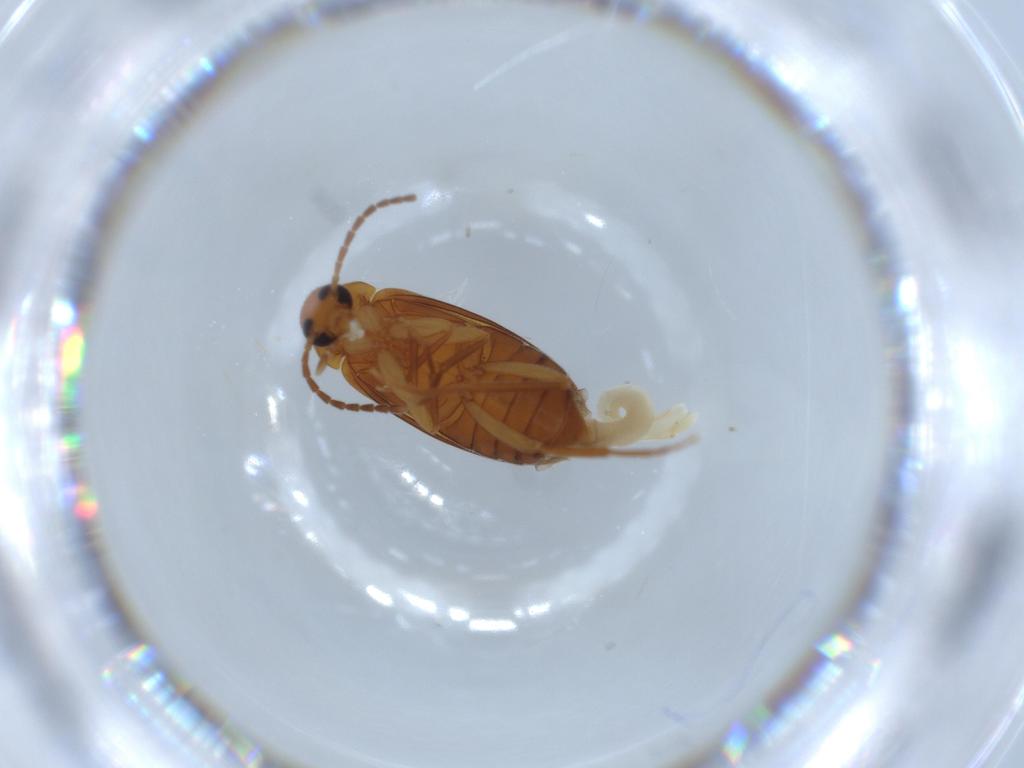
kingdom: Animalia
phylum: Arthropoda
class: Insecta
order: Coleoptera
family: Scraptiidae
